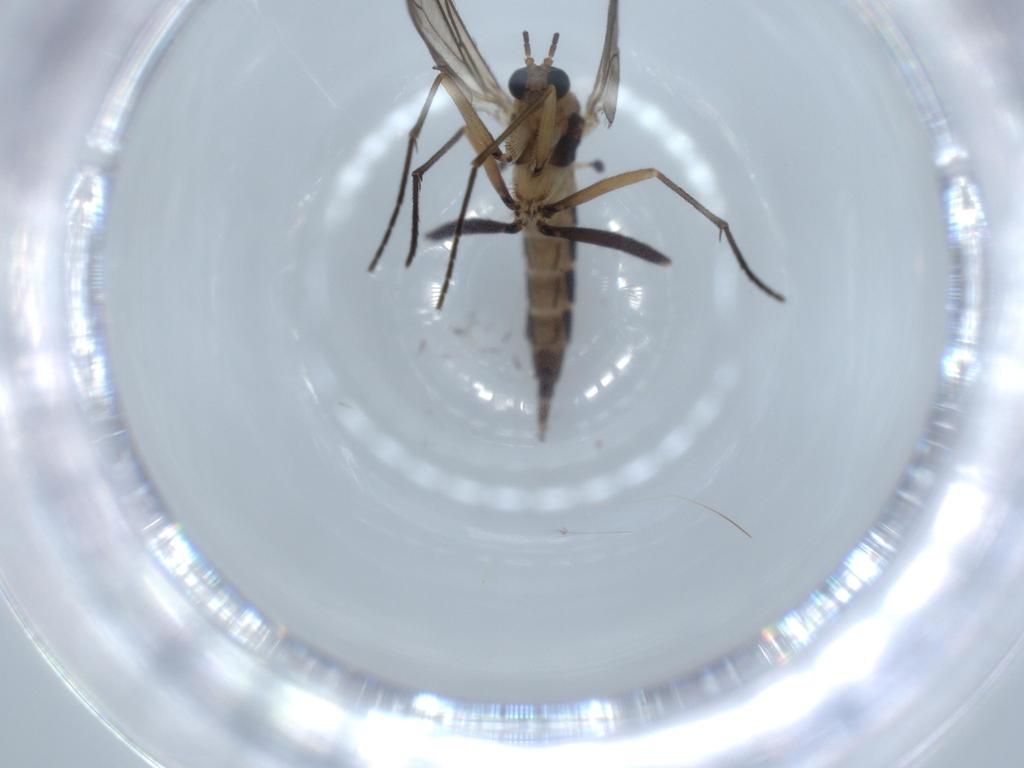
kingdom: Animalia
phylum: Arthropoda
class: Insecta
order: Diptera
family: Sciaridae
